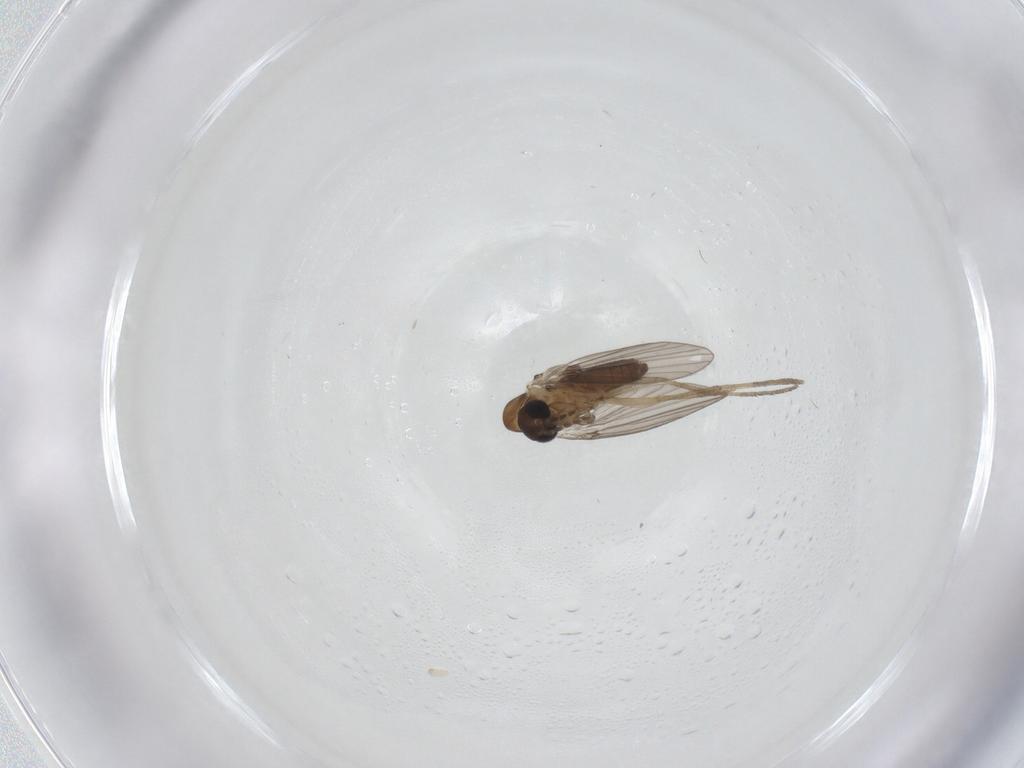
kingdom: Animalia
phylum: Arthropoda
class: Insecta
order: Diptera
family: Psychodidae
